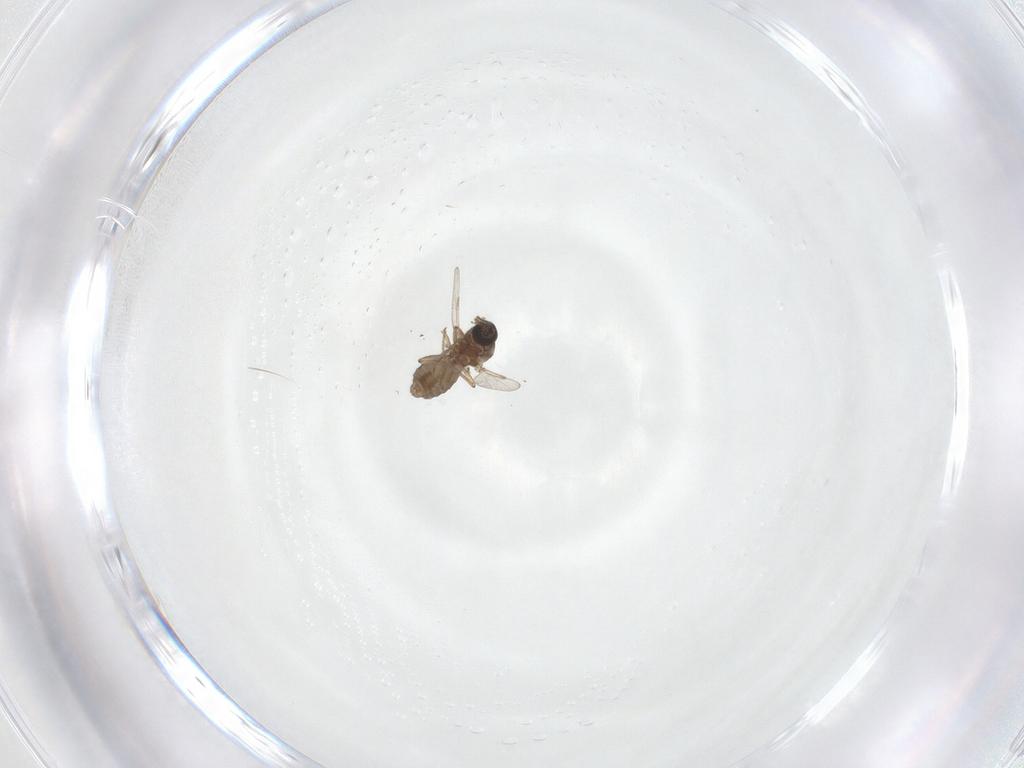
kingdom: Animalia
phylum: Arthropoda
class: Insecta
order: Diptera
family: Ceratopogonidae
